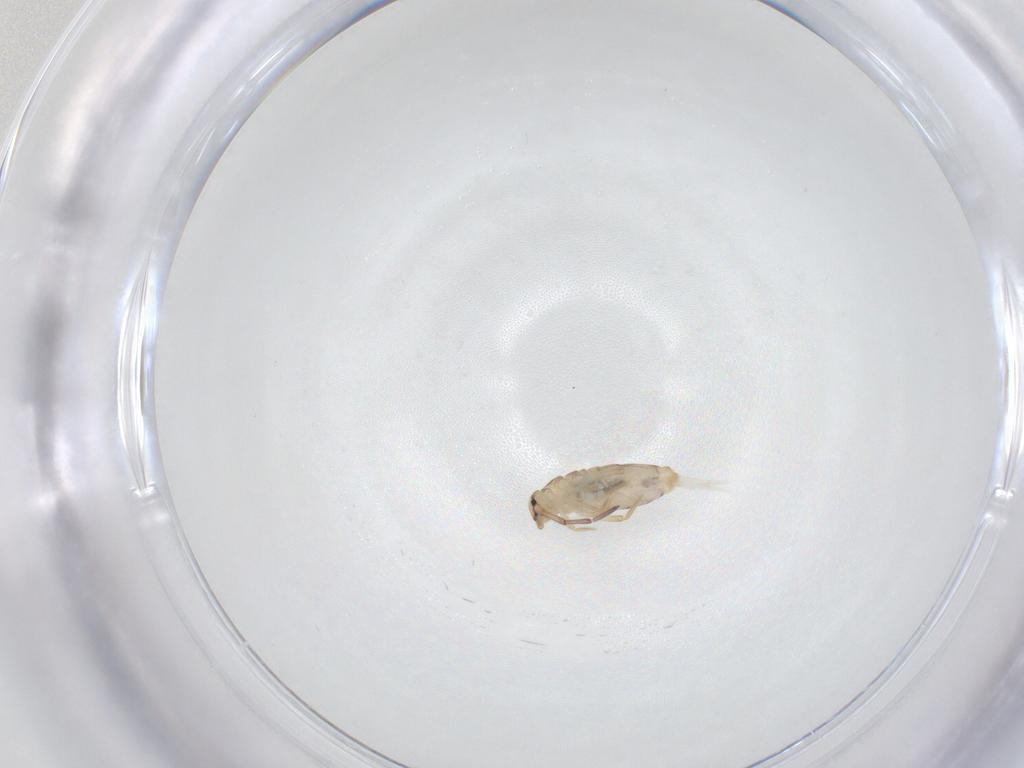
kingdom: Animalia
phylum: Arthropoda
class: Collembola
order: Entomobryomorpha
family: Entomobryidae
